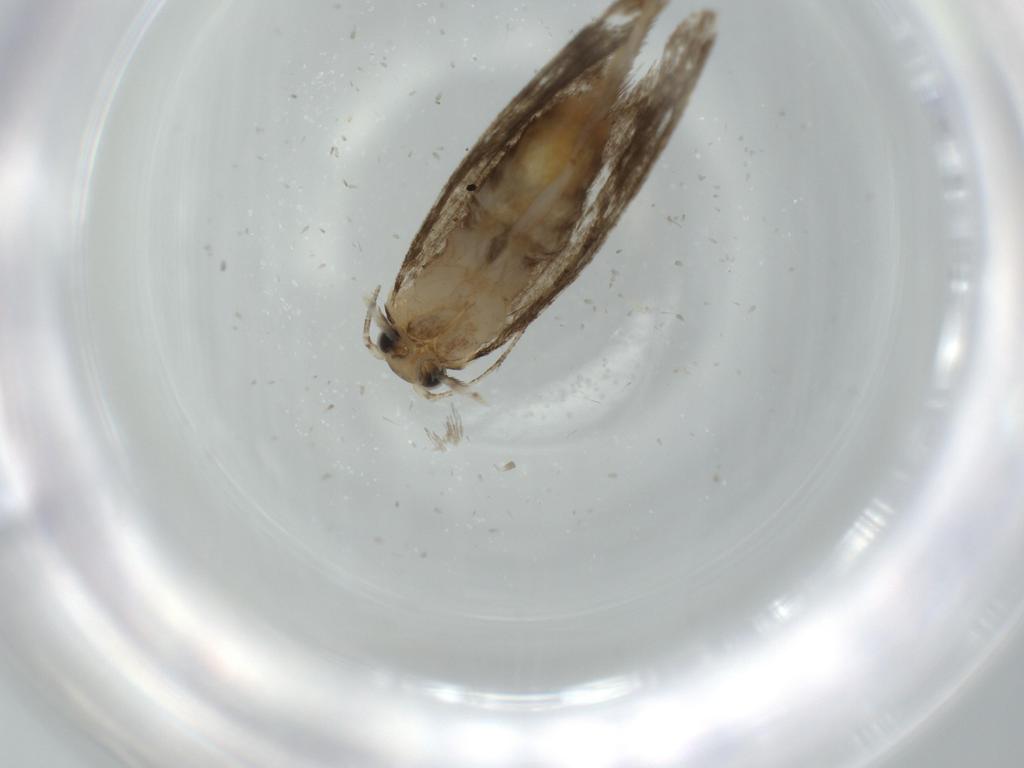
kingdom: Animalia
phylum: Arthropoda
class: Insecta
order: Lepidoptera
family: Tineidae
